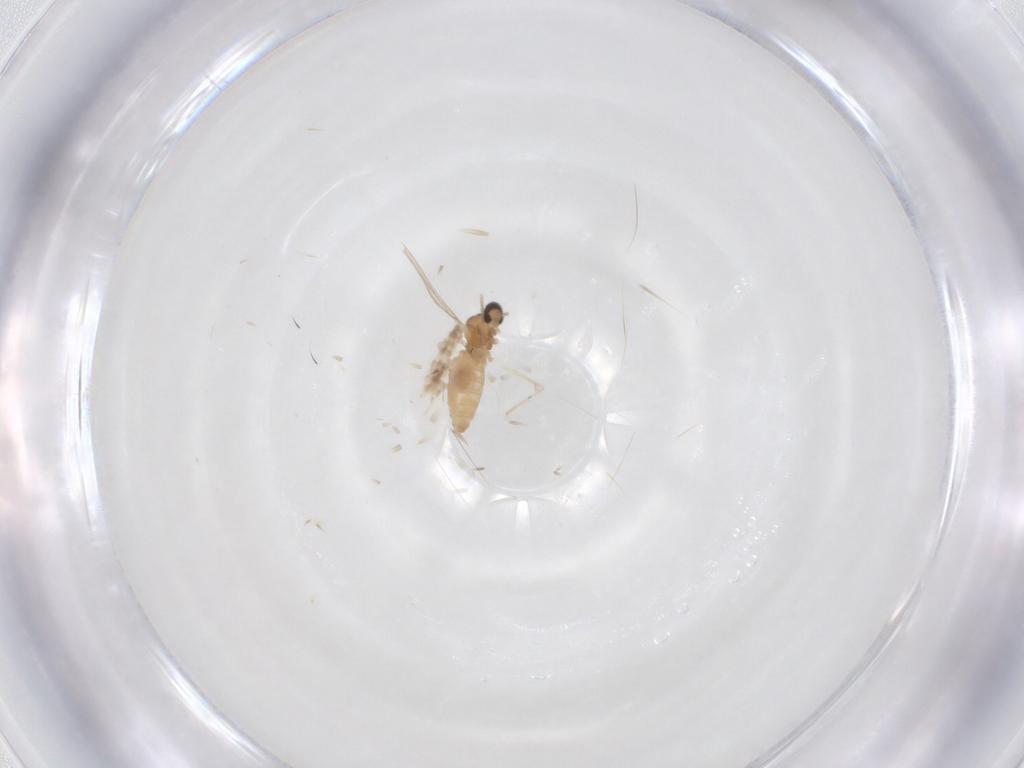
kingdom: Animalia
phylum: Arthropoda
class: Insecta
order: Diptera
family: Cecidomyiidae
